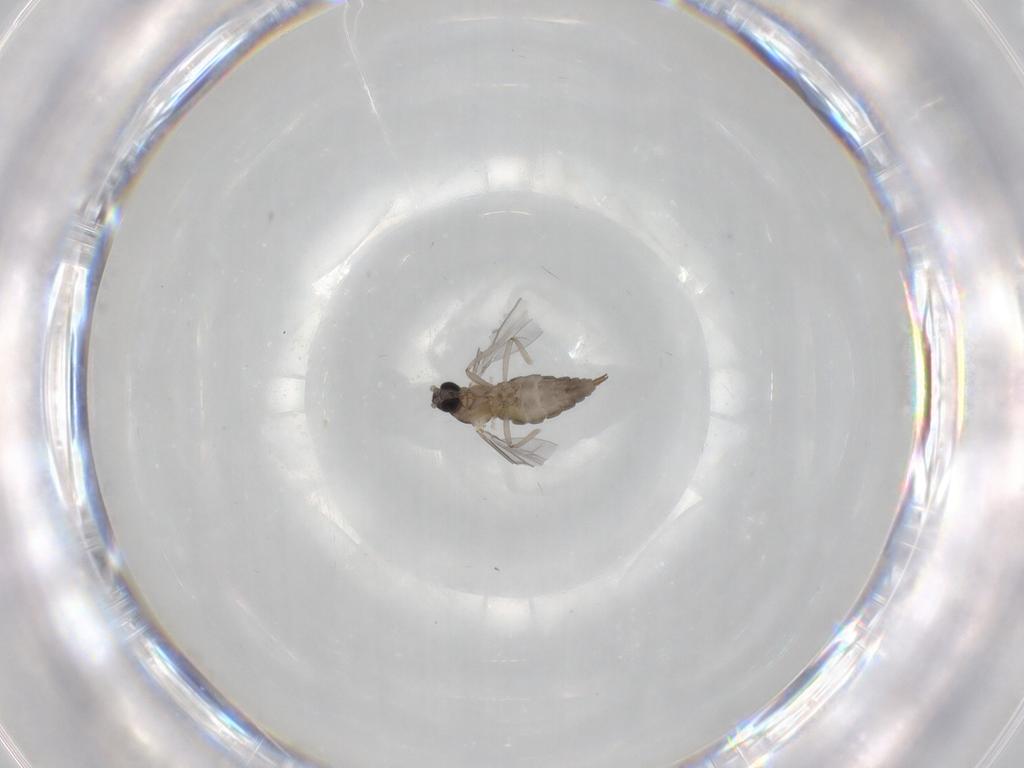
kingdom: Animalia
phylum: Arthropoda
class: Insecta
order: Diptera
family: Cecidomyiidae
